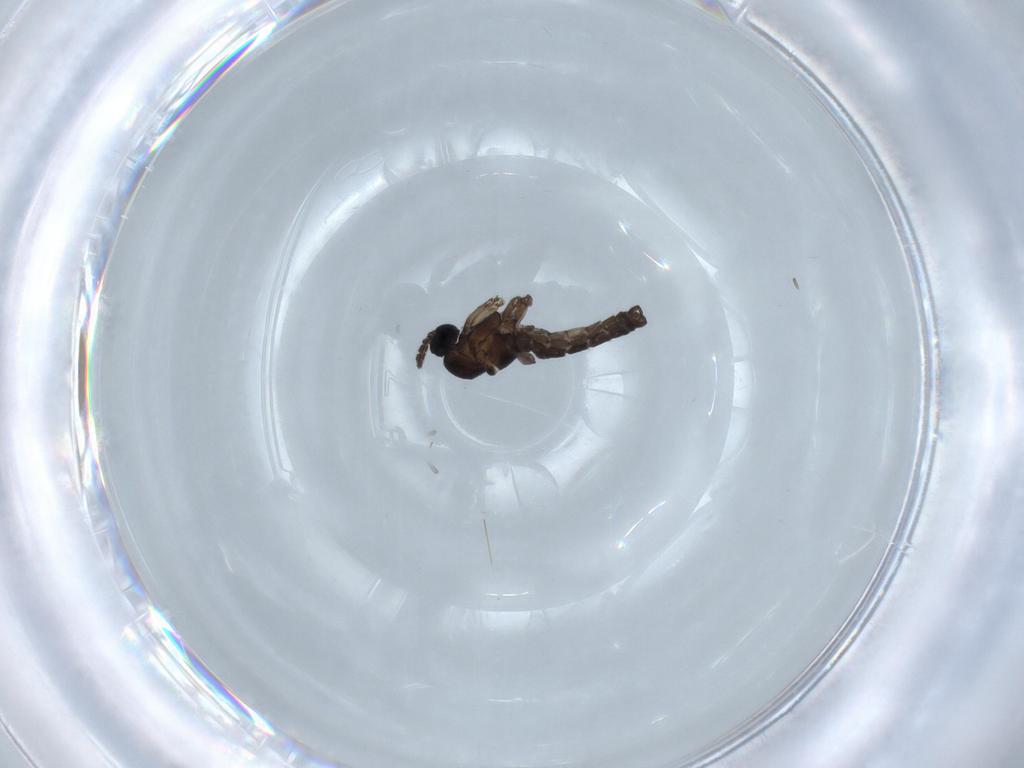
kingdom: Animalia
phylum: Arthropoda
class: Insecta
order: Diptera
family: Sciaridae
